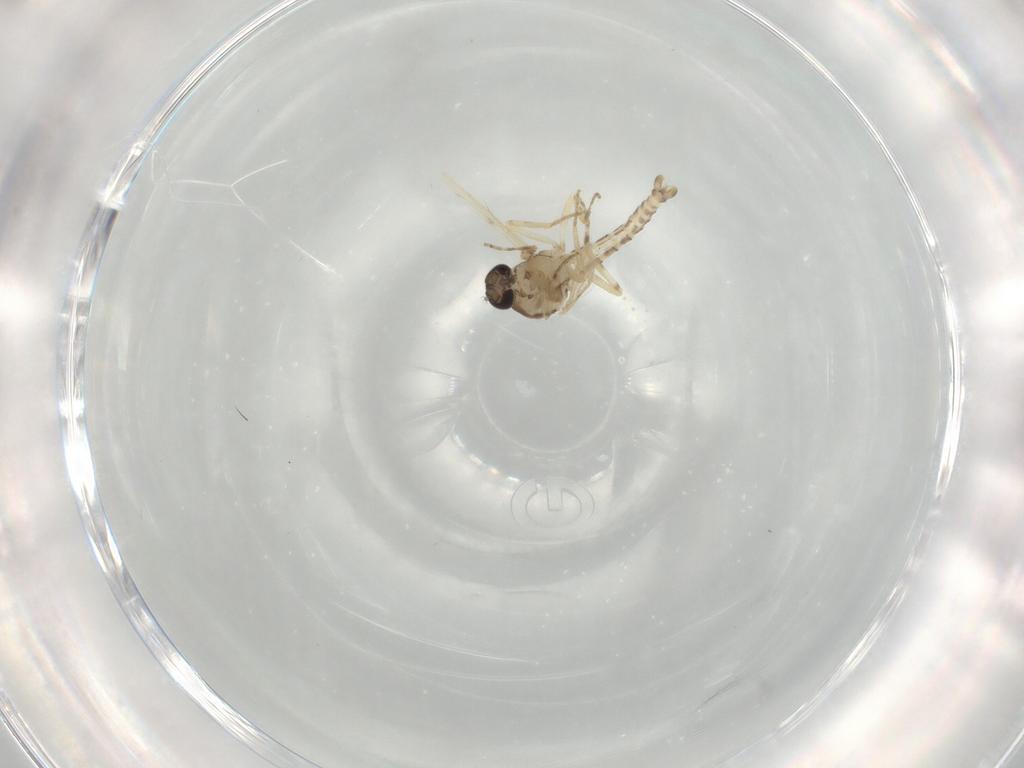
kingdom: Animalia
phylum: Arthropoda
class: Insecta
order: Diptera
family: Ceratopogonidae
